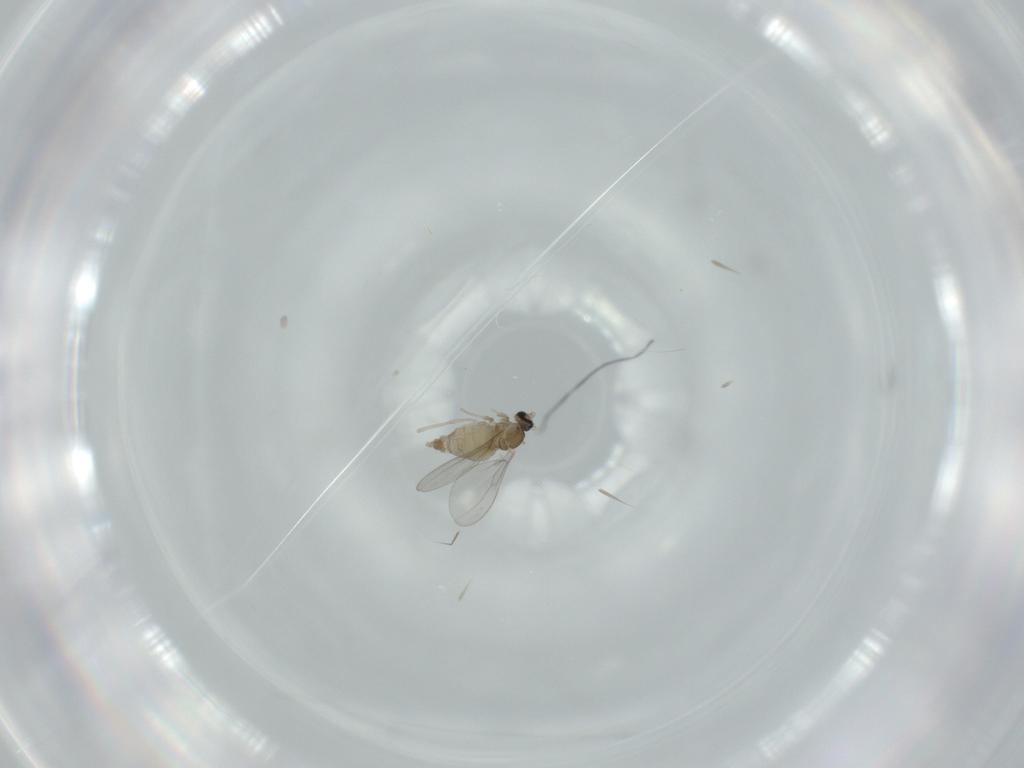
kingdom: Animalia
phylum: Arthropoda
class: Insecta
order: Diptera
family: Cecidomyiidae
